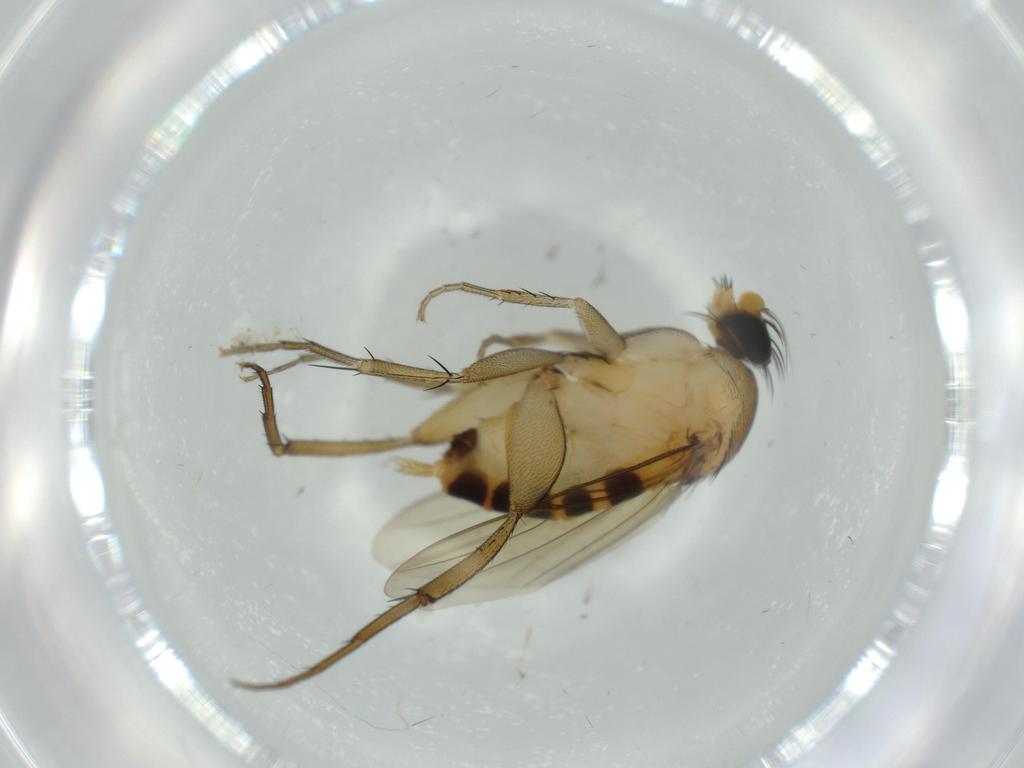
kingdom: Animalia
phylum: Arthropoda
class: Insecta
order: Diptera
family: Phoridae
